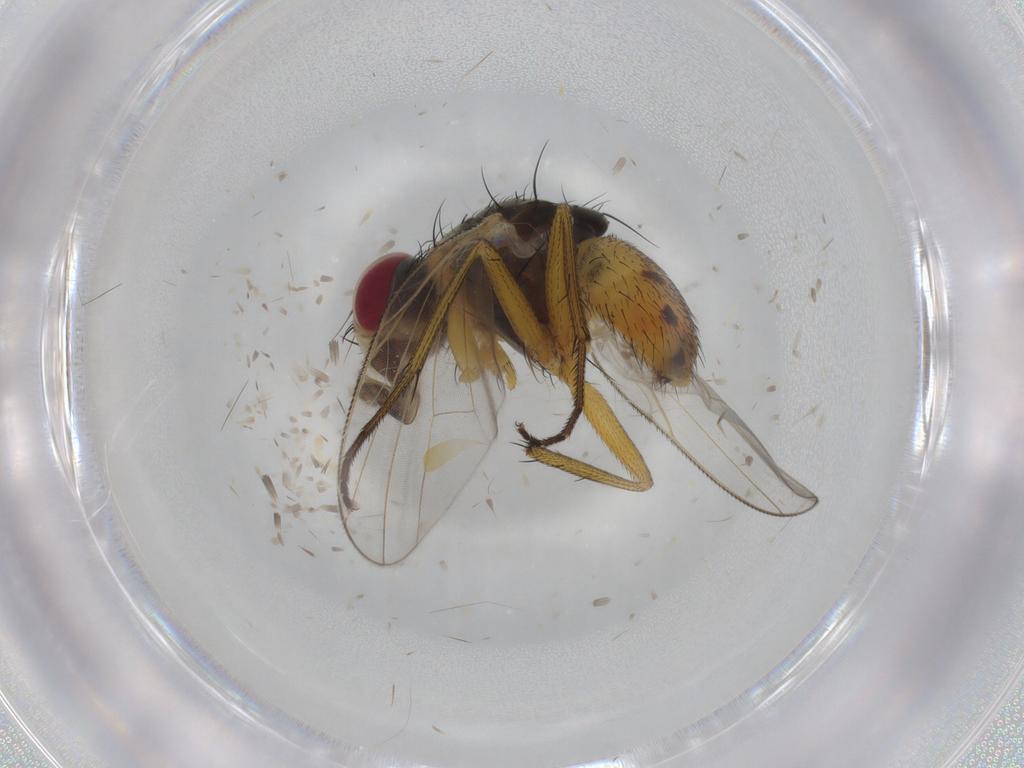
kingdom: Animalia
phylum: Arthropoda
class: Insecta
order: Diptera
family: Muscidae
